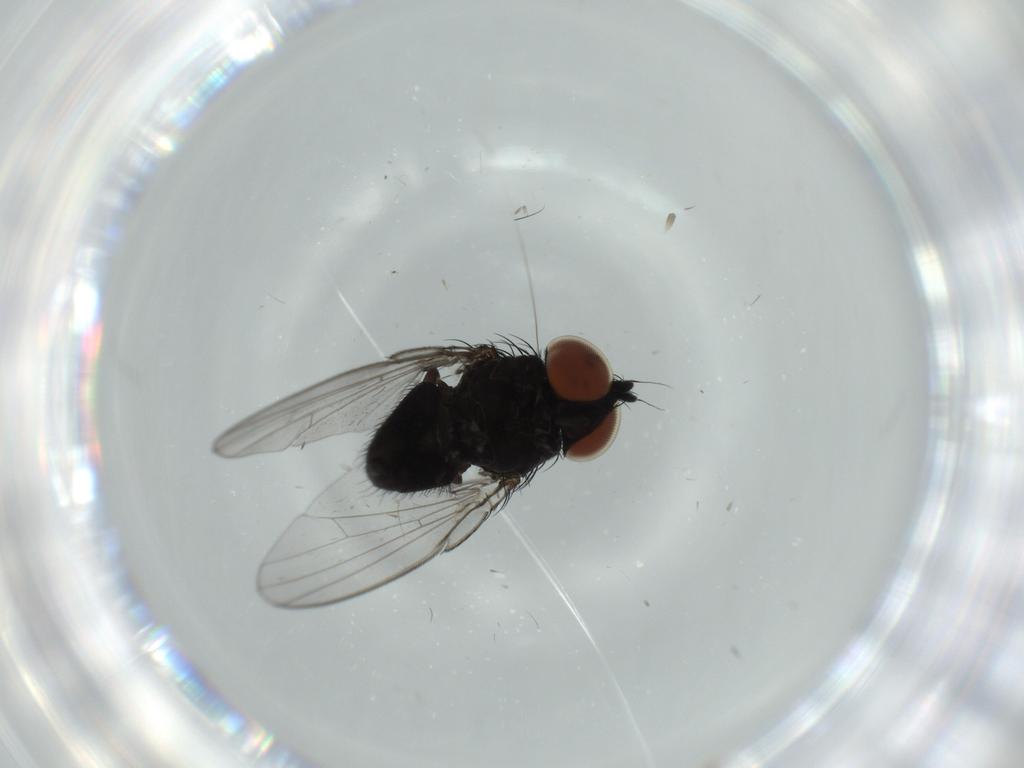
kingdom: Animalia
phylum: Arthropoda
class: Insecta
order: Diptera
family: Milichiidae
